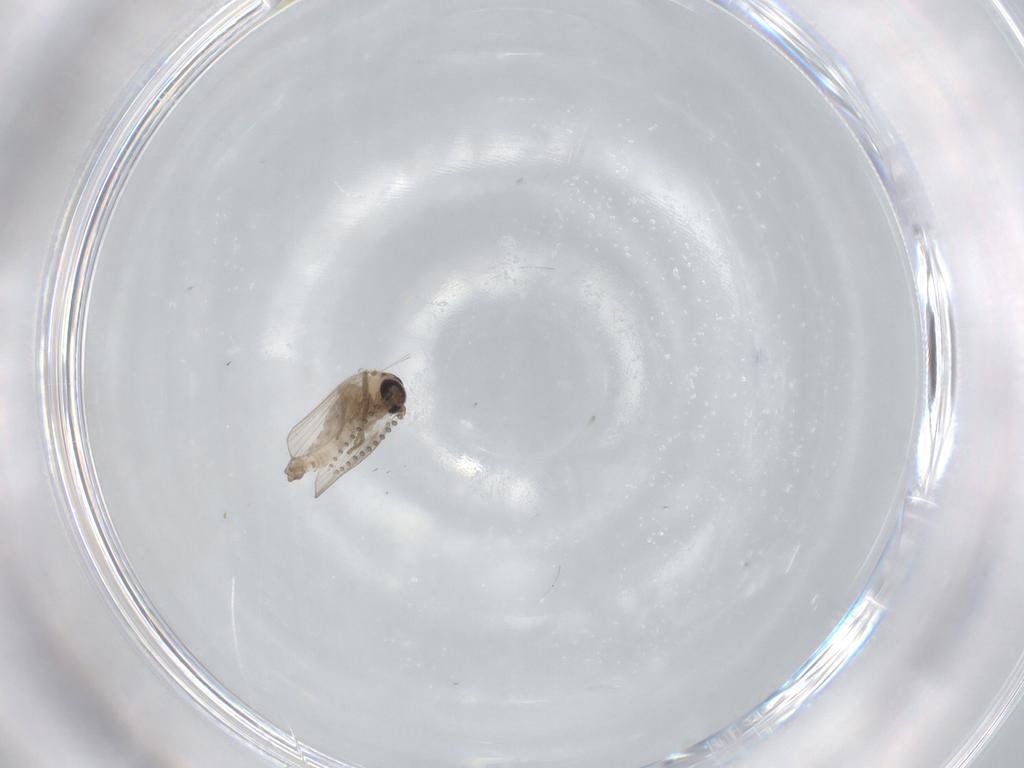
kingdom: Animalia
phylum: Arthropoda
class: Insecta
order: Diptera
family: Psychodidae
